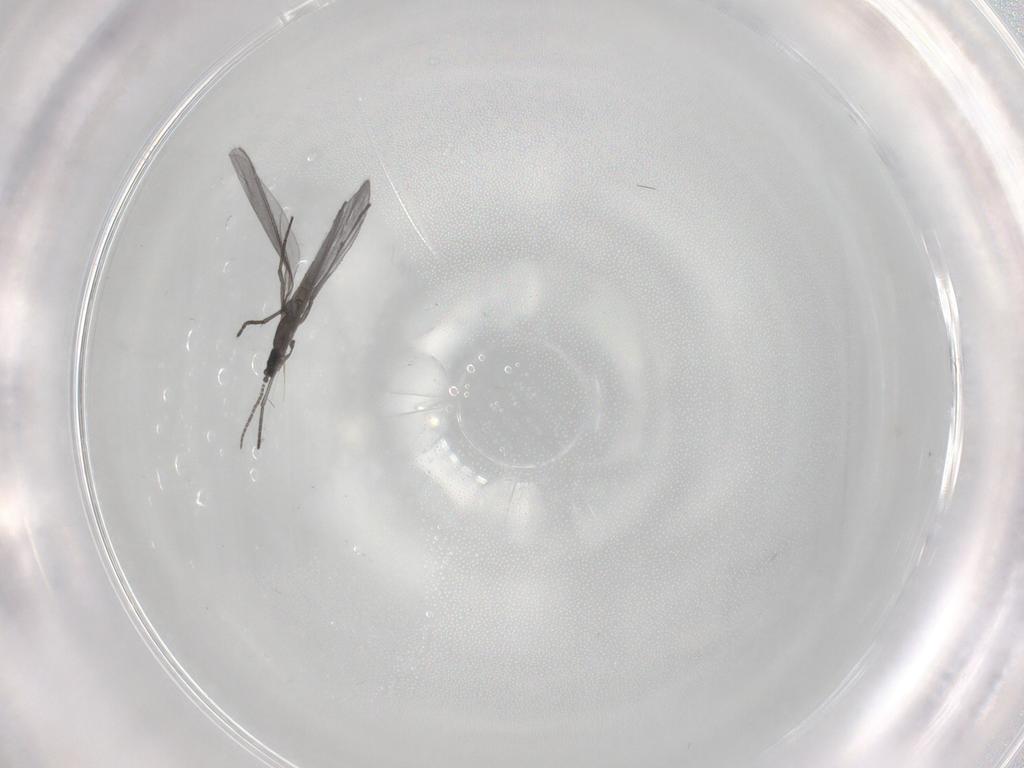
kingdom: Animalia
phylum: Arthropoda
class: Insecta
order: Diptera
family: Sciaridae
